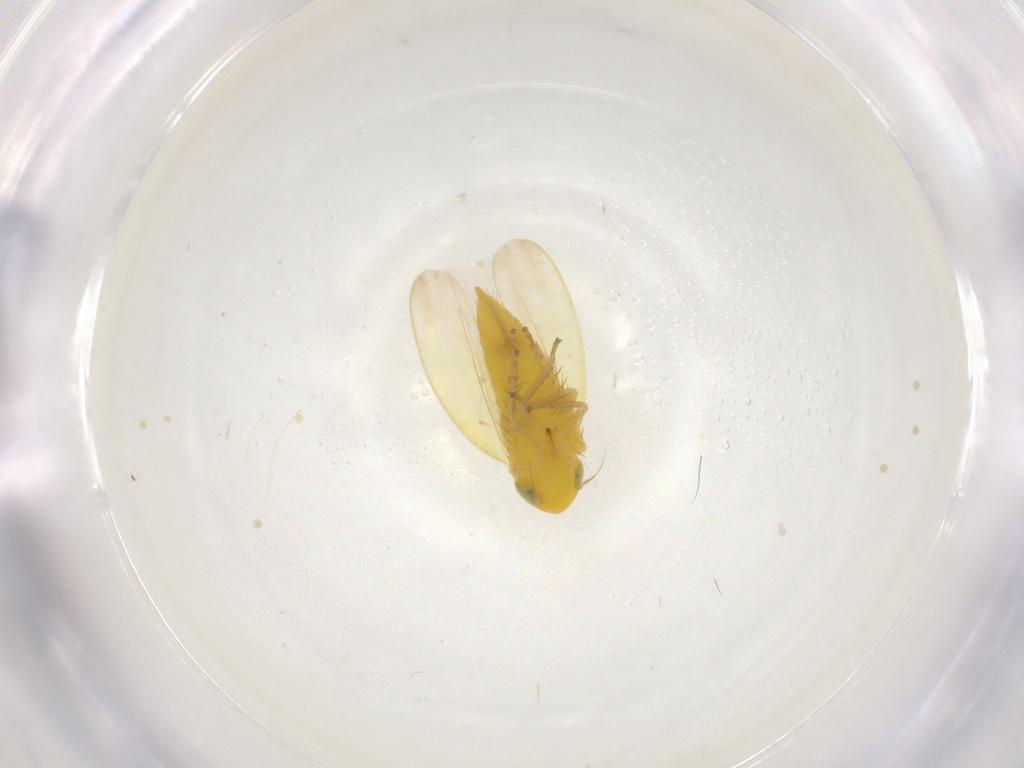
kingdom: Animalia
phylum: Arthropoda
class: Insecta
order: Hemiptera
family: Cicadellidae
